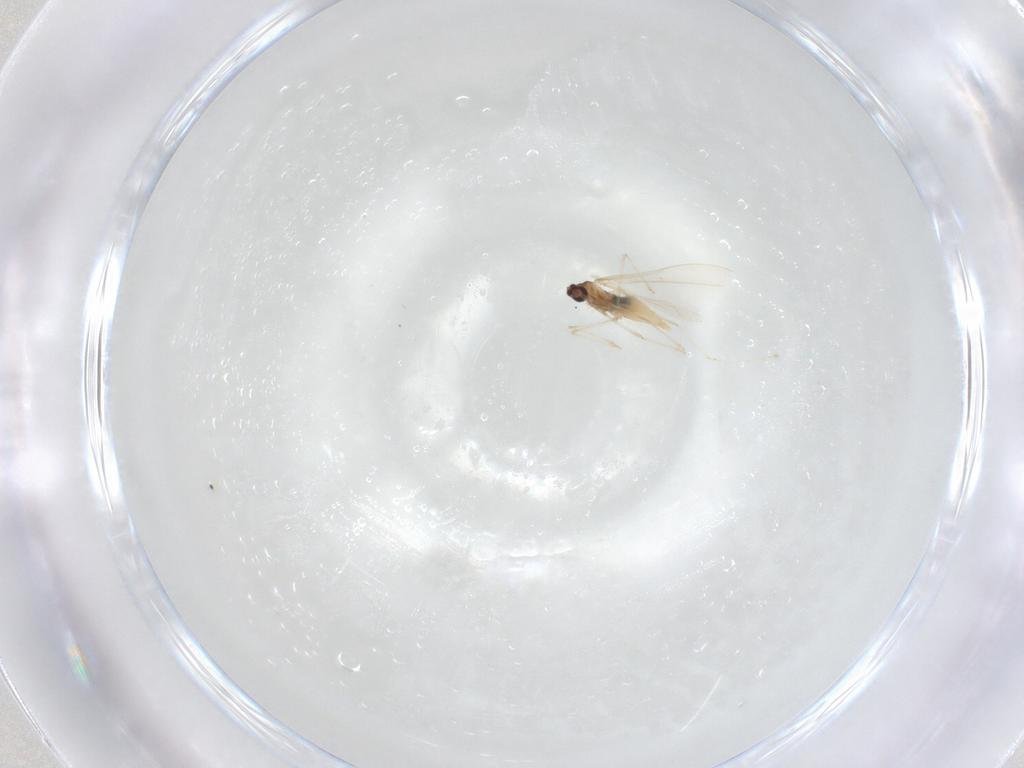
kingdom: Animalia
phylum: Arthropoda
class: Insecta
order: Diptera
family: Cecidomyiidae
